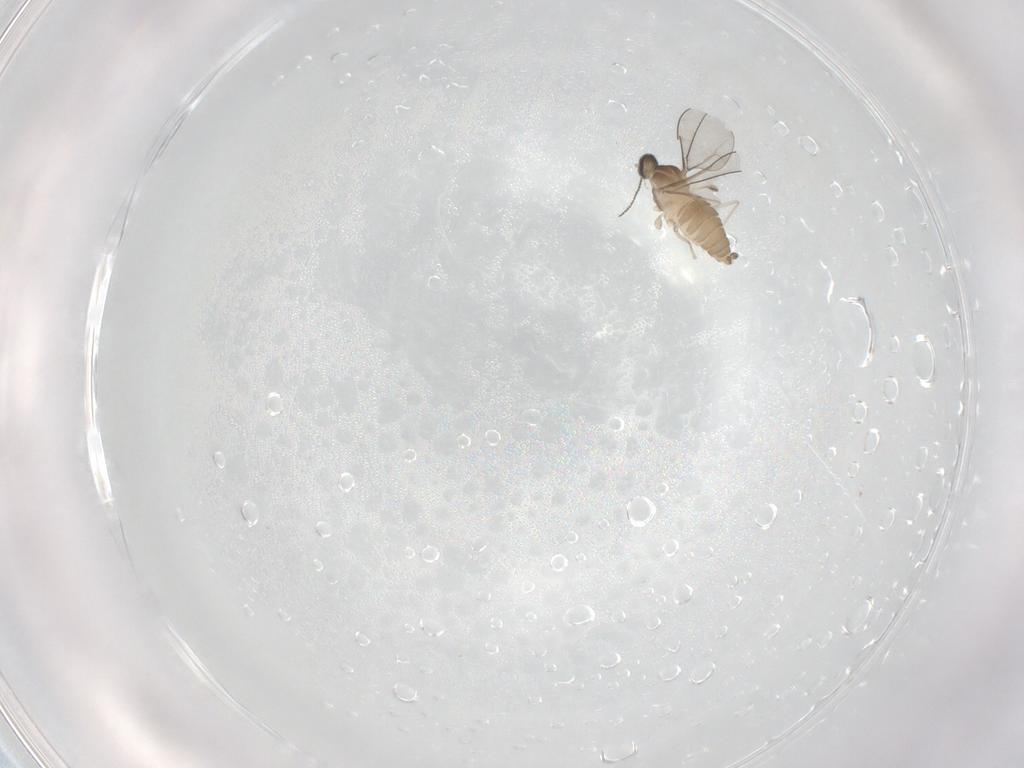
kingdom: Animalia
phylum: Arthropoda
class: Insecta
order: Diptera
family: Cecidomyiidae
